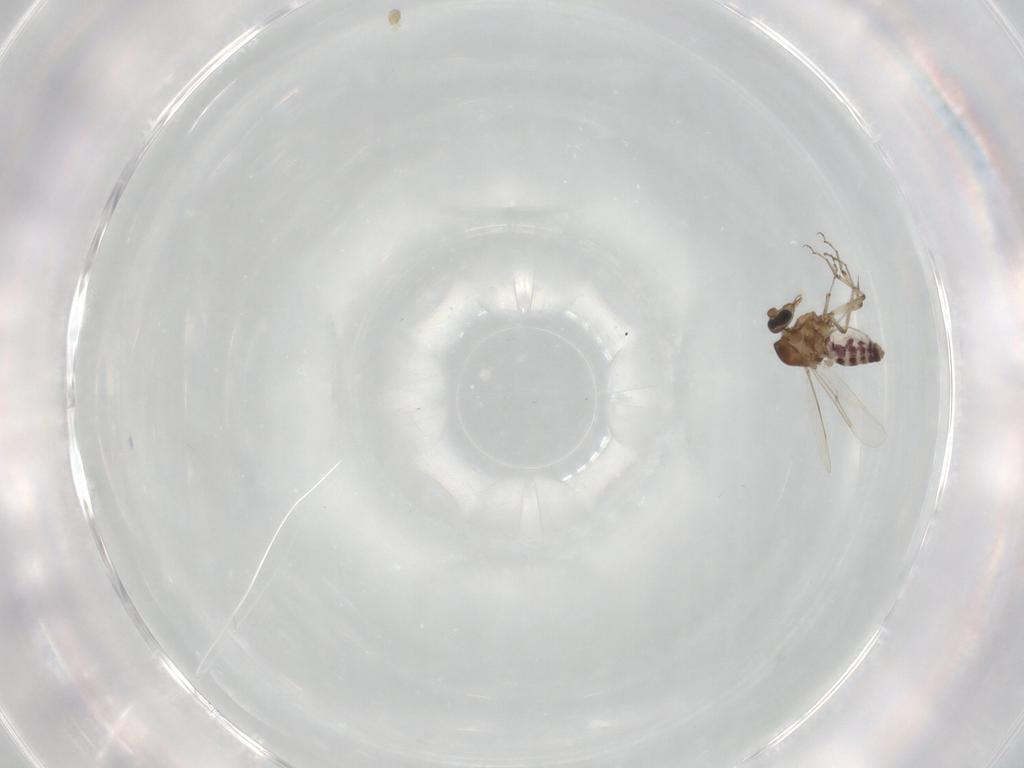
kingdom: Animalia
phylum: Arthropoda
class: Insecta
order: Diptera
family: Ceratopogonidae
